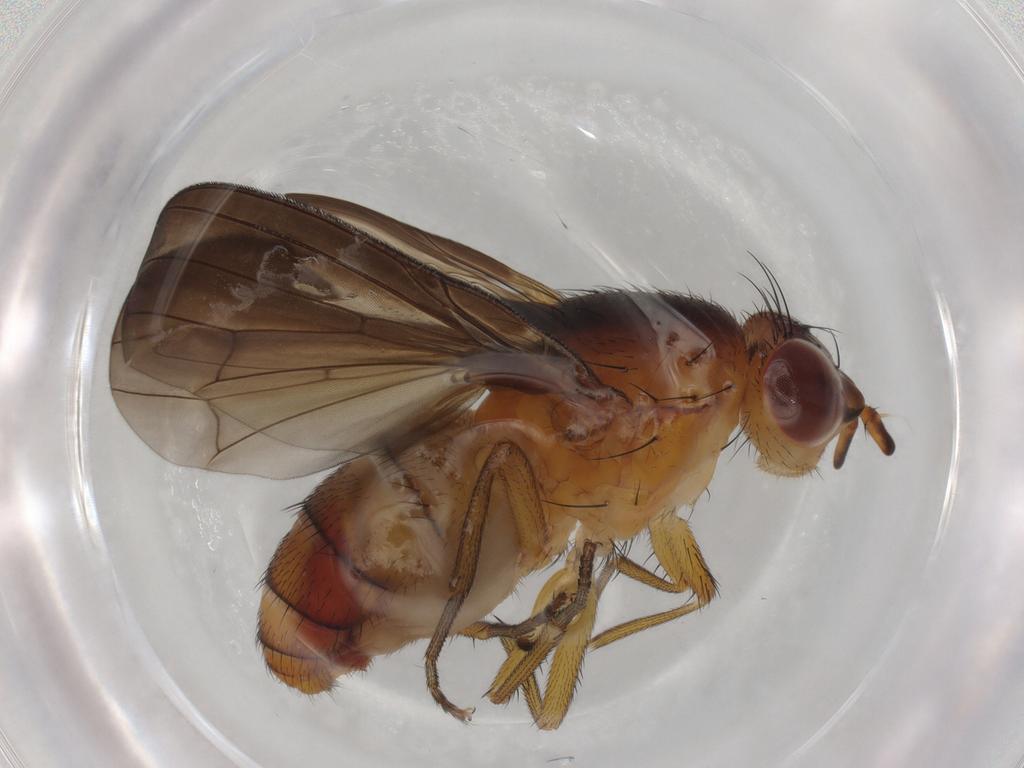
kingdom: Animalia
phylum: Arthropoda
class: Insecta
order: Diptera
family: Lauxaniidae
